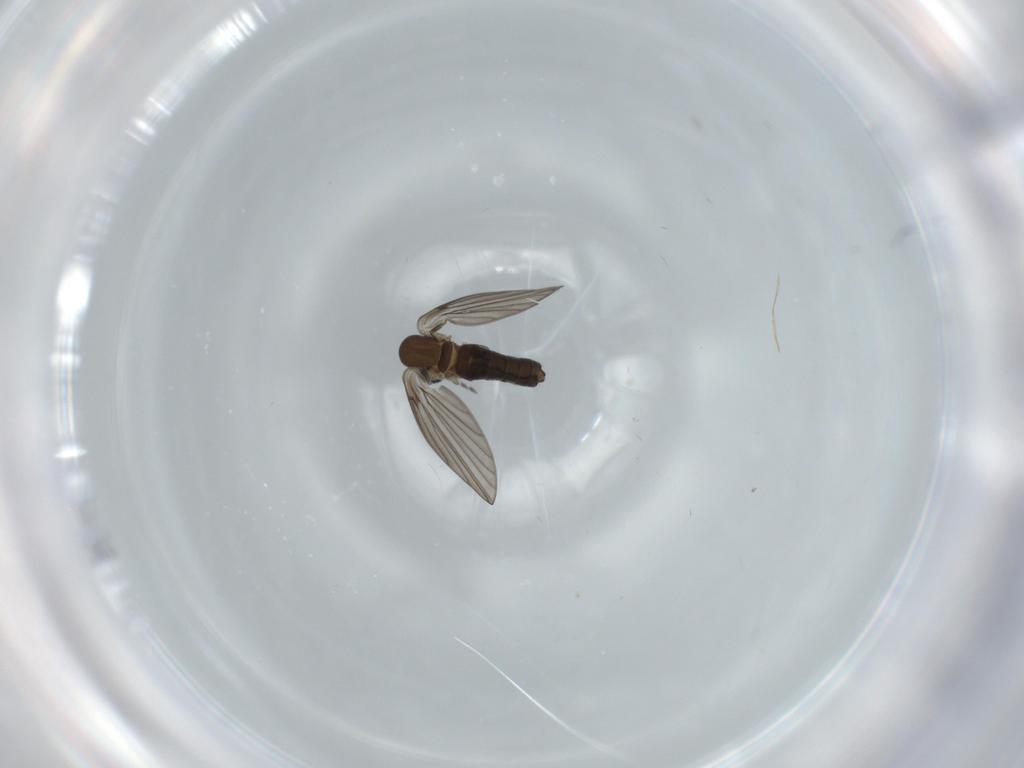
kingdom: Animalia
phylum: Arthropoda
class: Insecta
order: Diptera
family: Psychodidae
